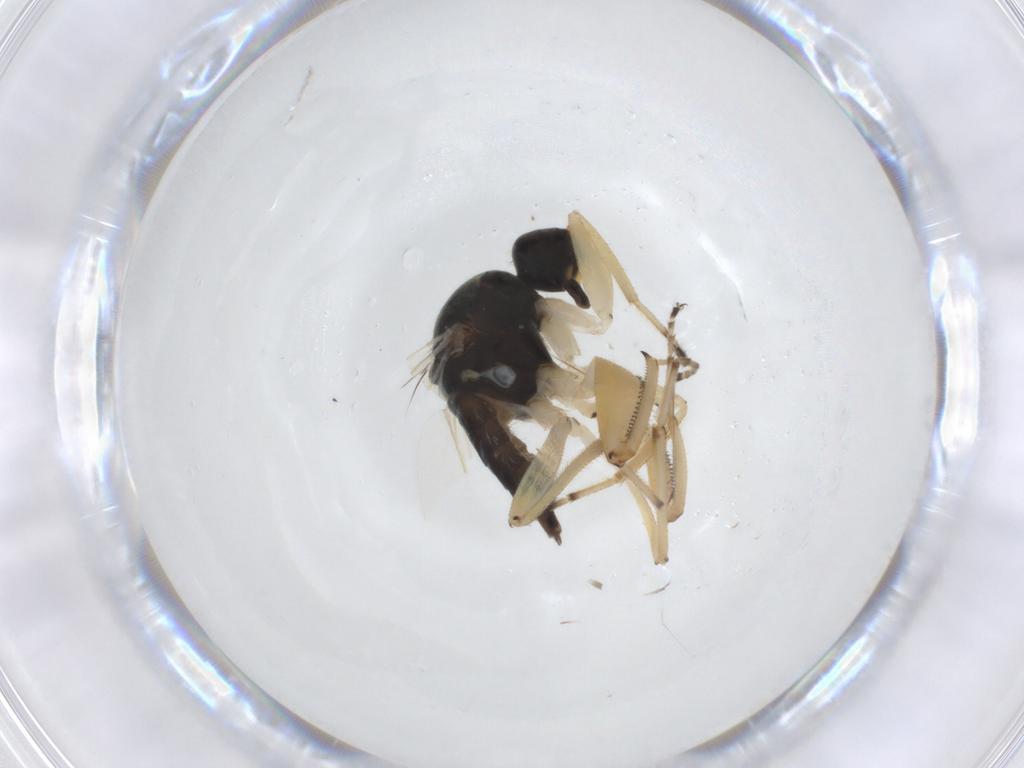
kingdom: Animalia
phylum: Arthropoda
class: Insecta
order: Diptera
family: Hybotidae
